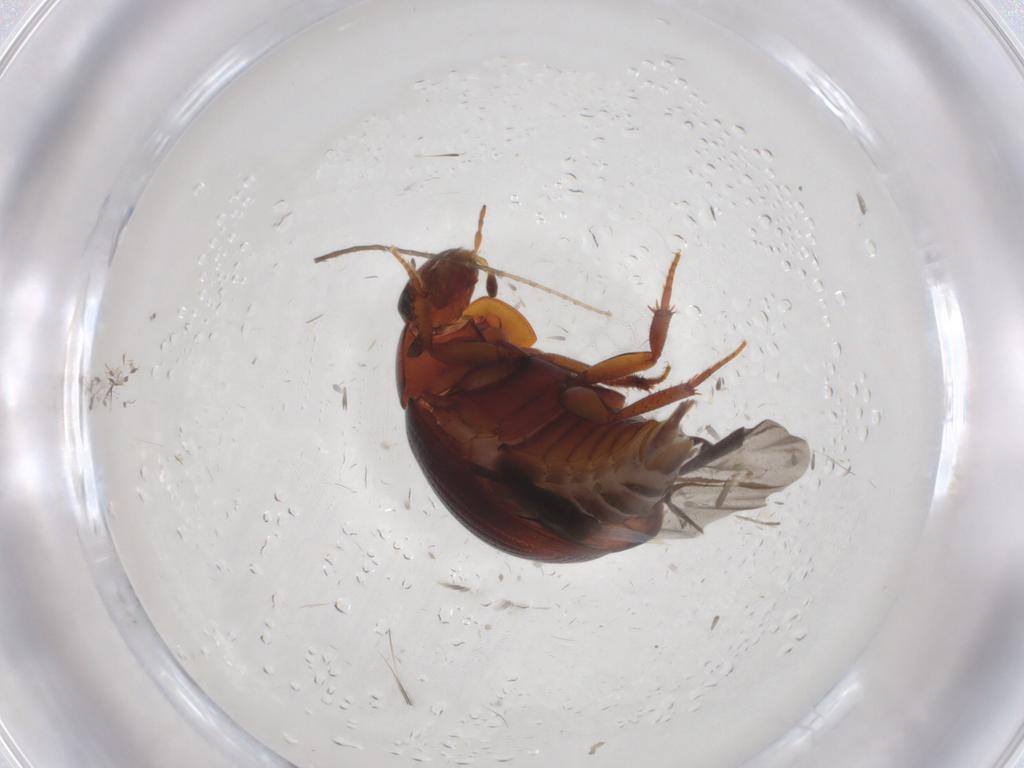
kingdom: Animalia
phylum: Arthropoda
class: Insecta
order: Coleoptera
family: Hydrophilidae
